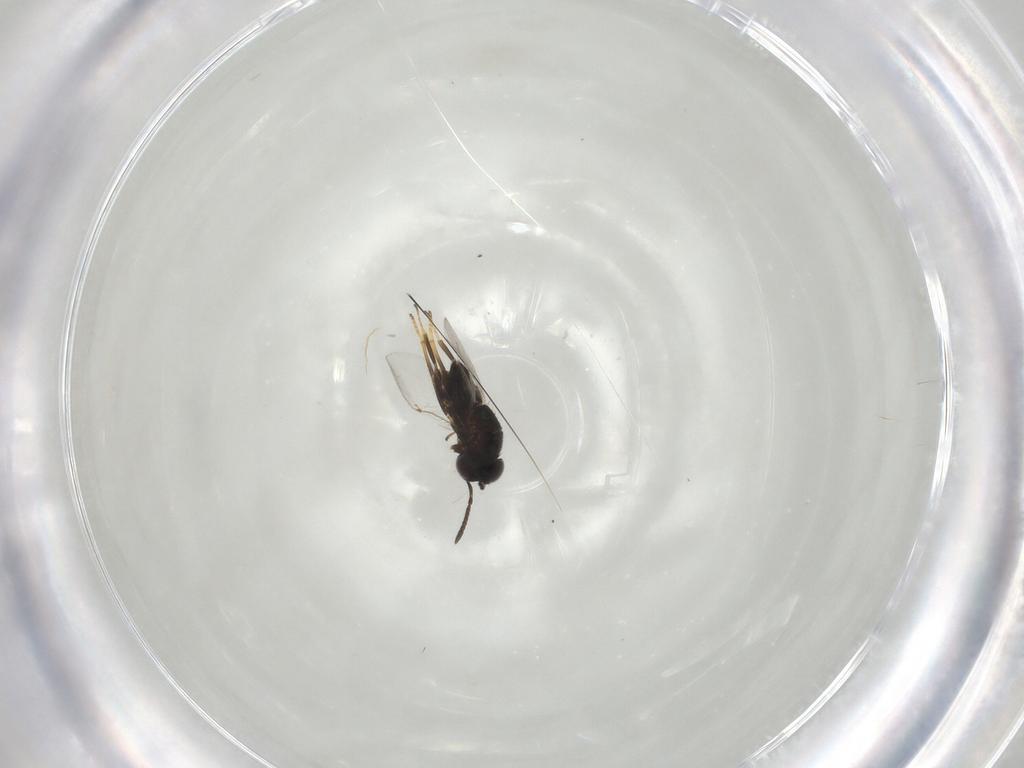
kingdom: Animalia
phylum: Arthropoda
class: Insecta
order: Hymenoptera
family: Encyrtidae
